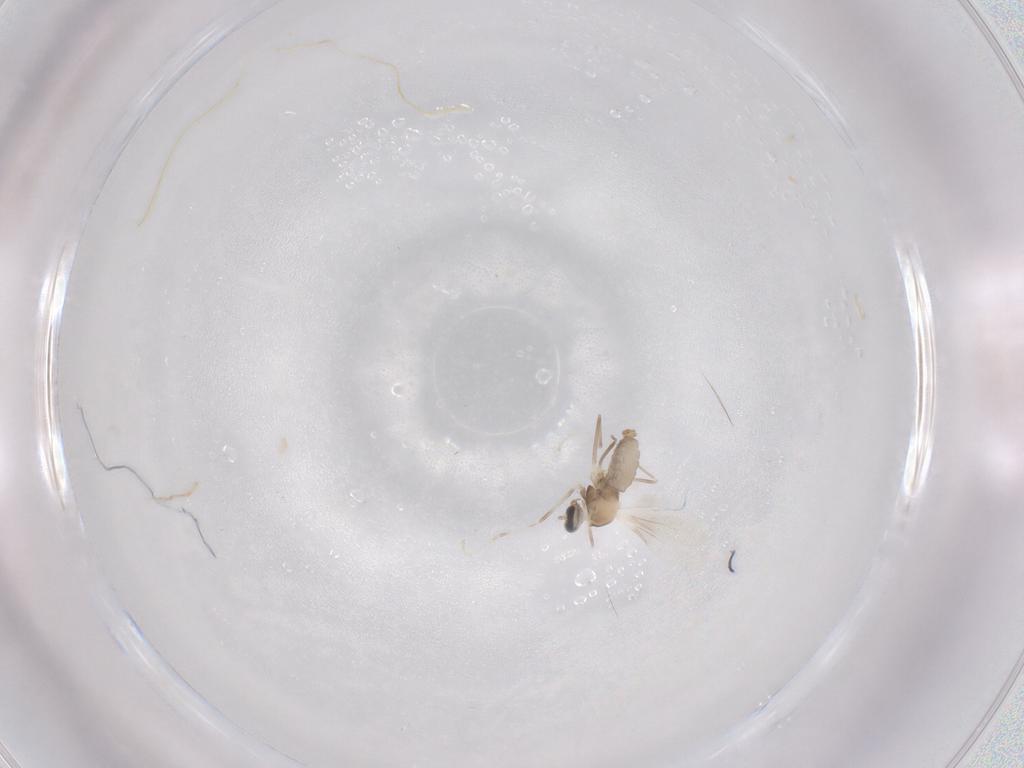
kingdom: Animalia
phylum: Arthropoda
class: Insecta
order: Diptera
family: Cecidomyiidae
